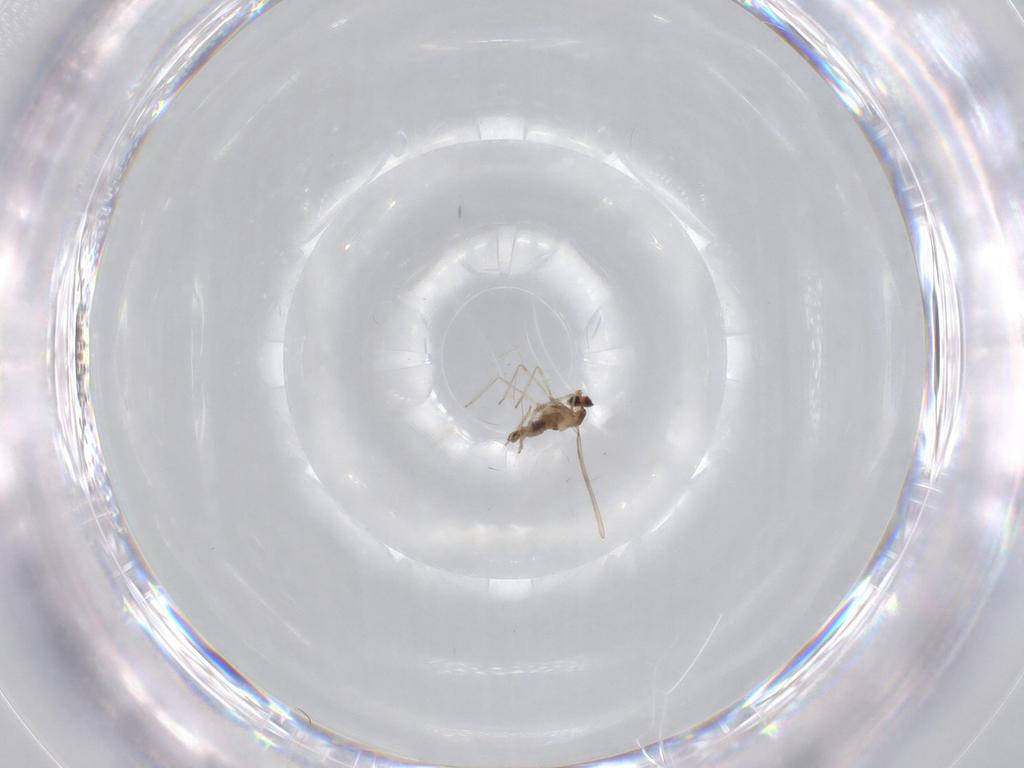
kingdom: Animalia
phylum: Arthropoda
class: Insecta
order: Diptera
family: Cecidomyiidae
